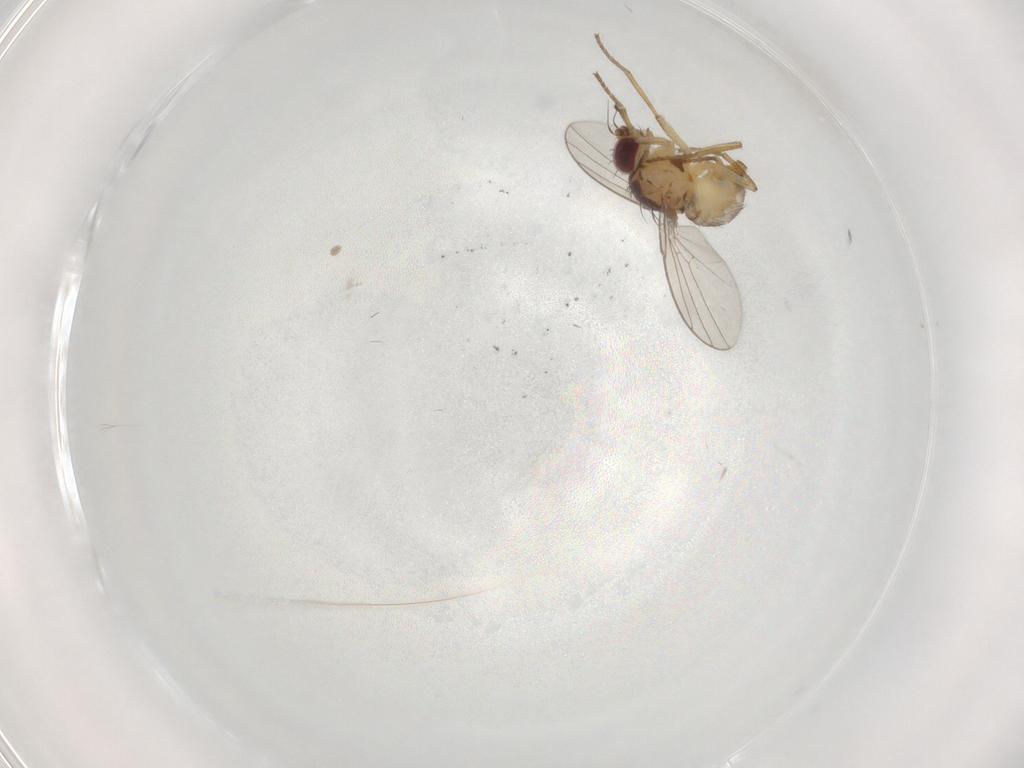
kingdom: Animalia
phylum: Arthropoda
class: Insecta
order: Diptera
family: Agromyzidae
